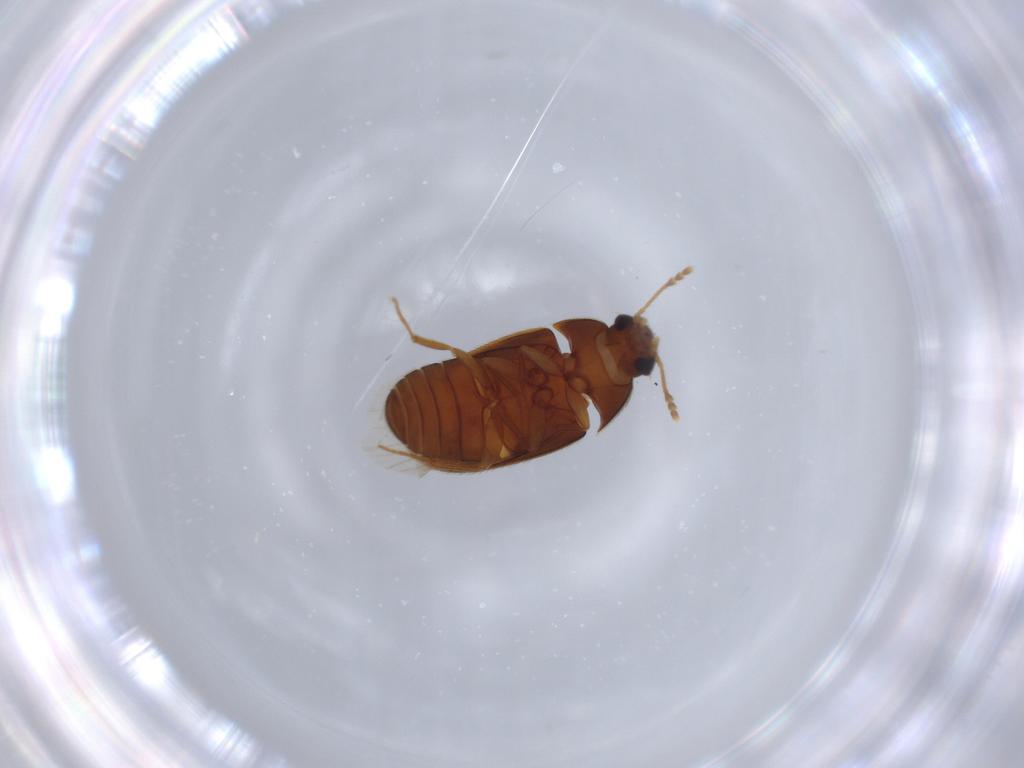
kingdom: Animalia
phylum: Arthropoda
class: Insecta
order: Coleoptera
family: Mycetophagidae
